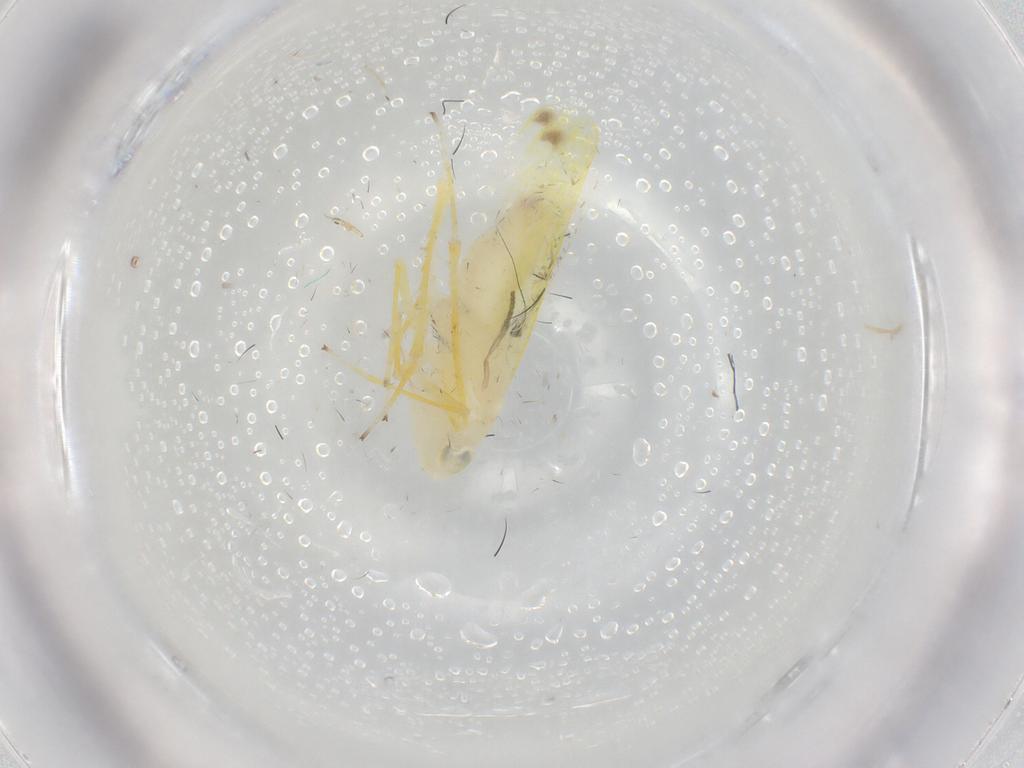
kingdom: Animalia
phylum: Arthropoda
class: Insecta
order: Hemiptera
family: Cicadellidae
